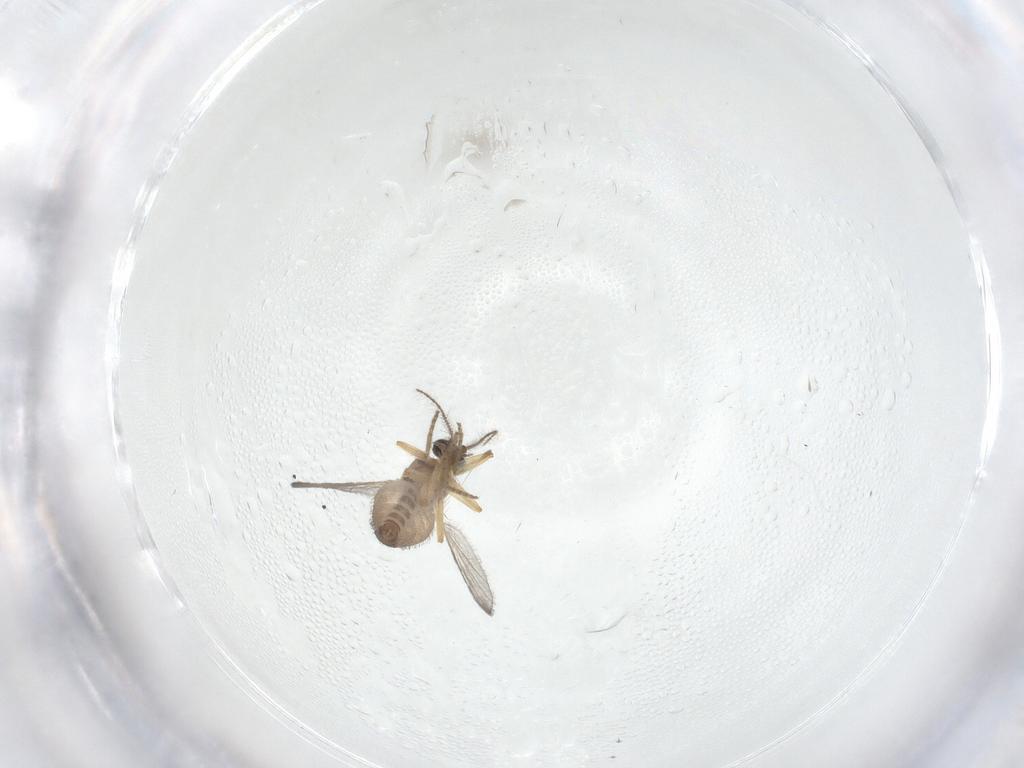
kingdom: Animalia
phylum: Arthropoda
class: Insecta
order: Diptera
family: Ceratopogonidae
